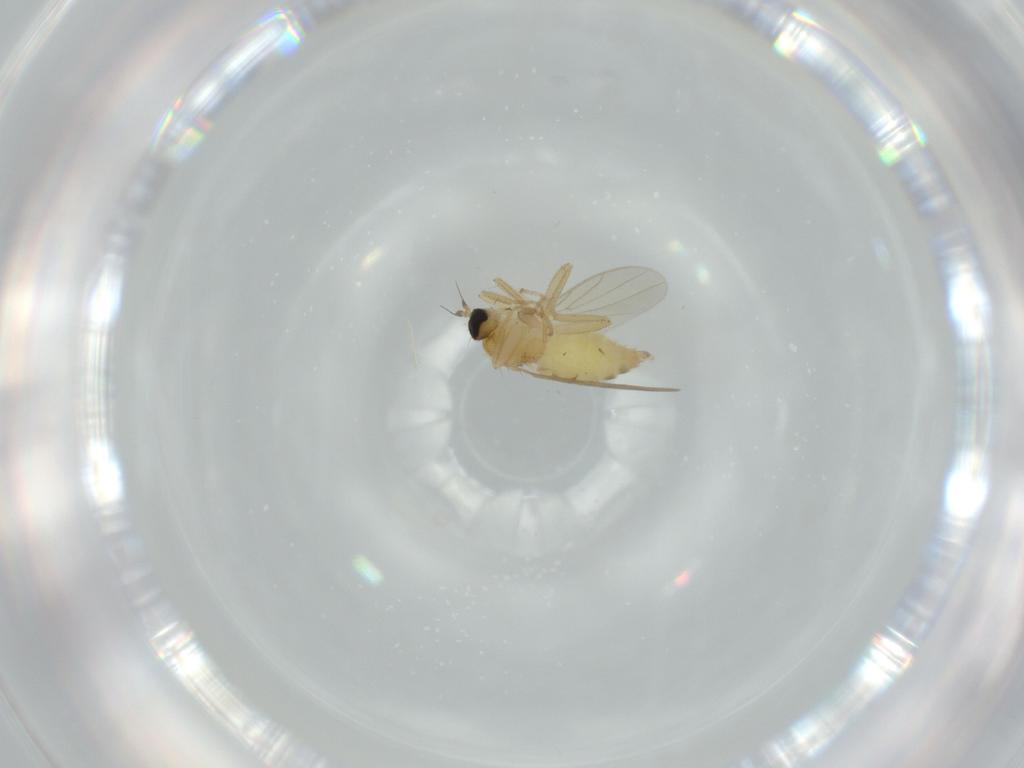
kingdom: Animalia
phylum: Arthropoda
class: Insecta
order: Diptera
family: Hybotidae
